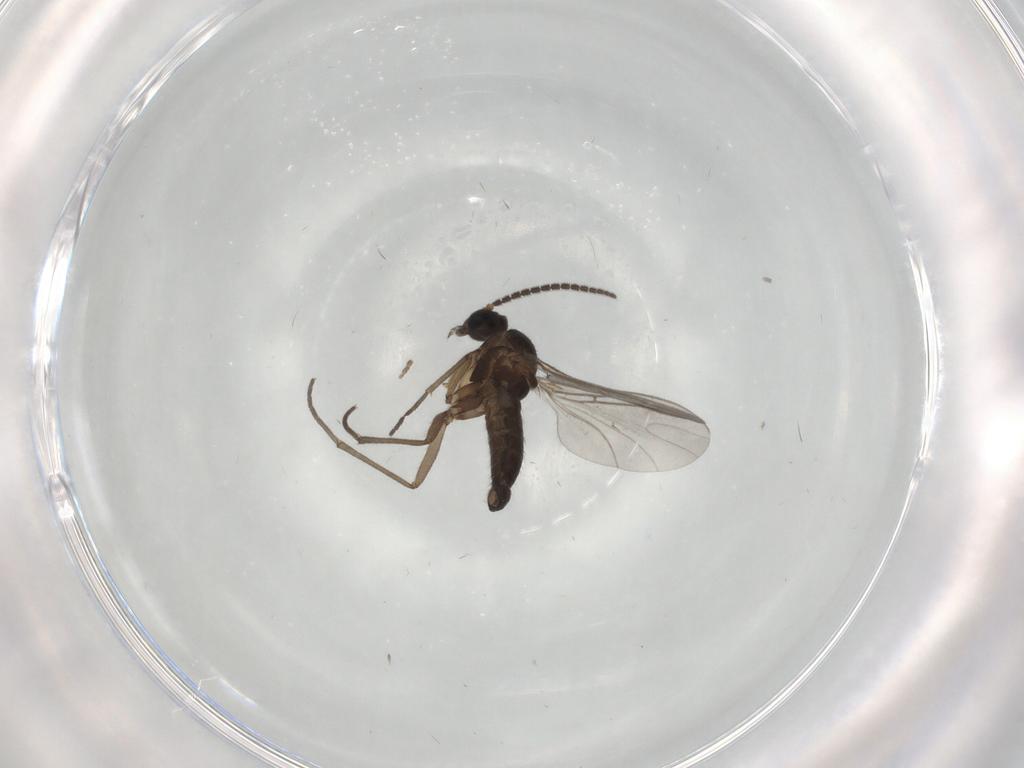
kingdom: Animalia
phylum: Arthropoda
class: Insecta
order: Diptera
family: Sciaridae
